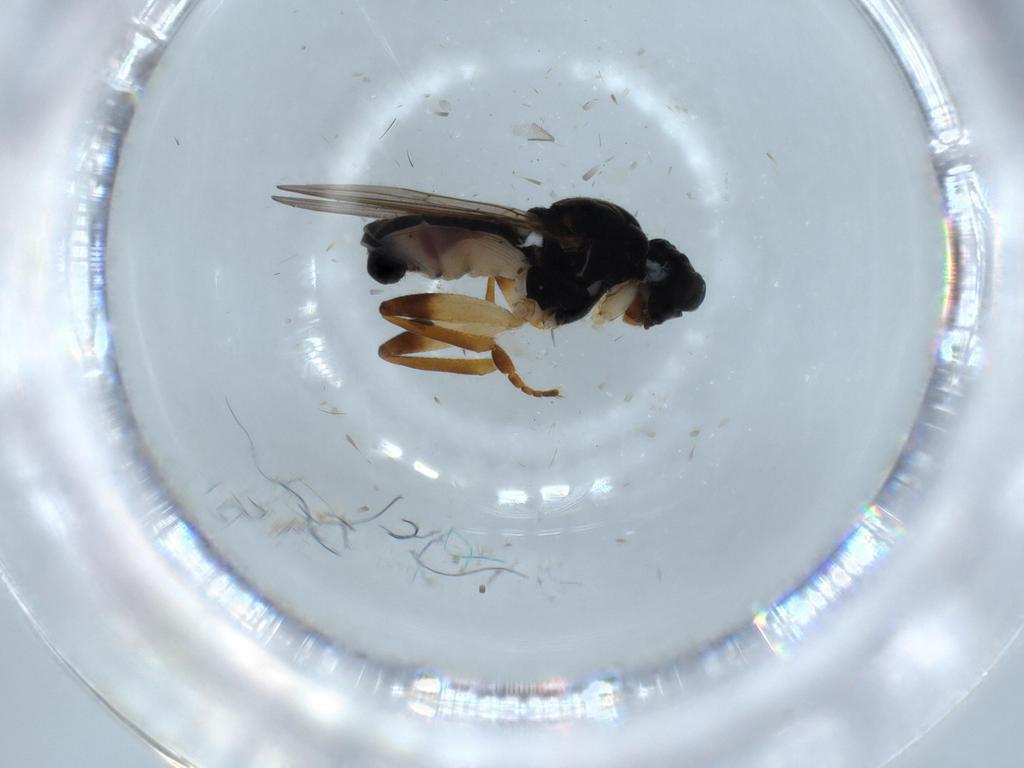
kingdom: Animalia
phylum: Arthropoda
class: Insecta
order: Diptera
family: Sphaeroceridae
